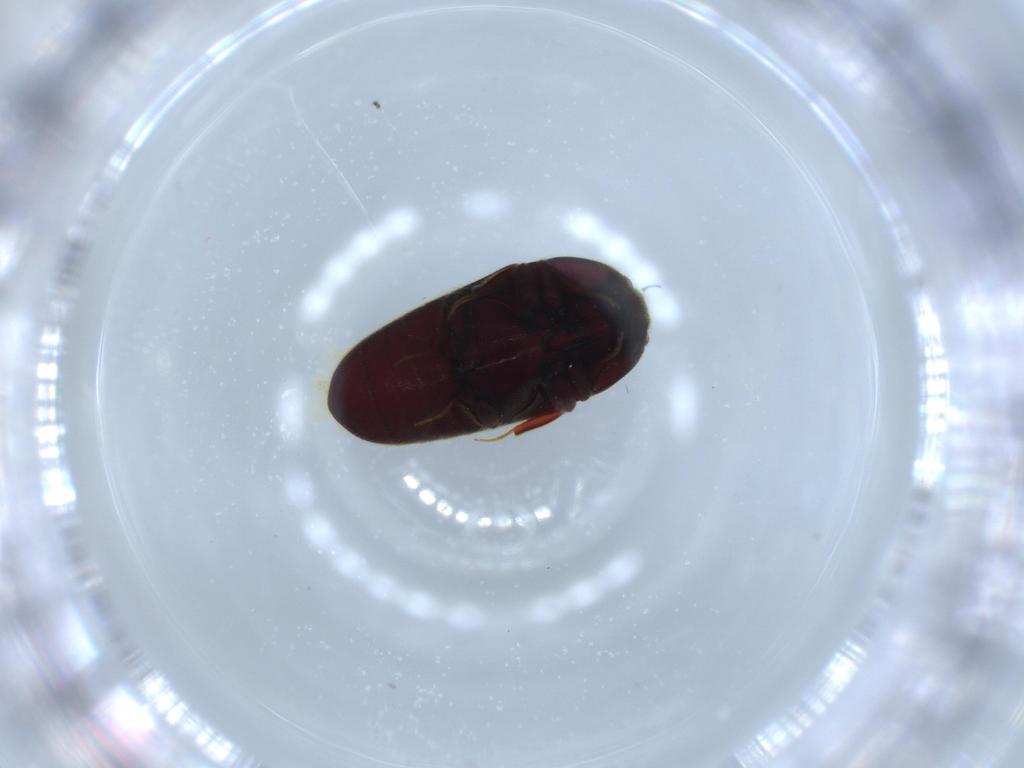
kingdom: Animalia
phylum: Arthropoda
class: Insecta
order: Coleoptera
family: Throscidae
